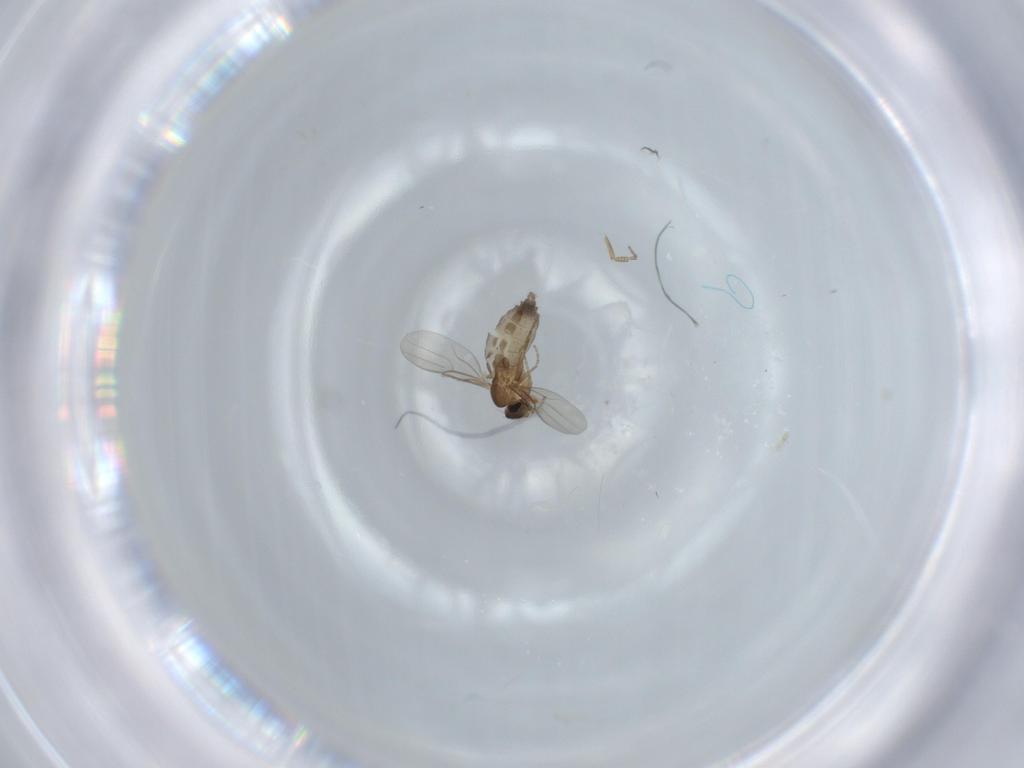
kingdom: Animalia
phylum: Arthropoda
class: Insecta
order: Diptera
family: Phoridae
